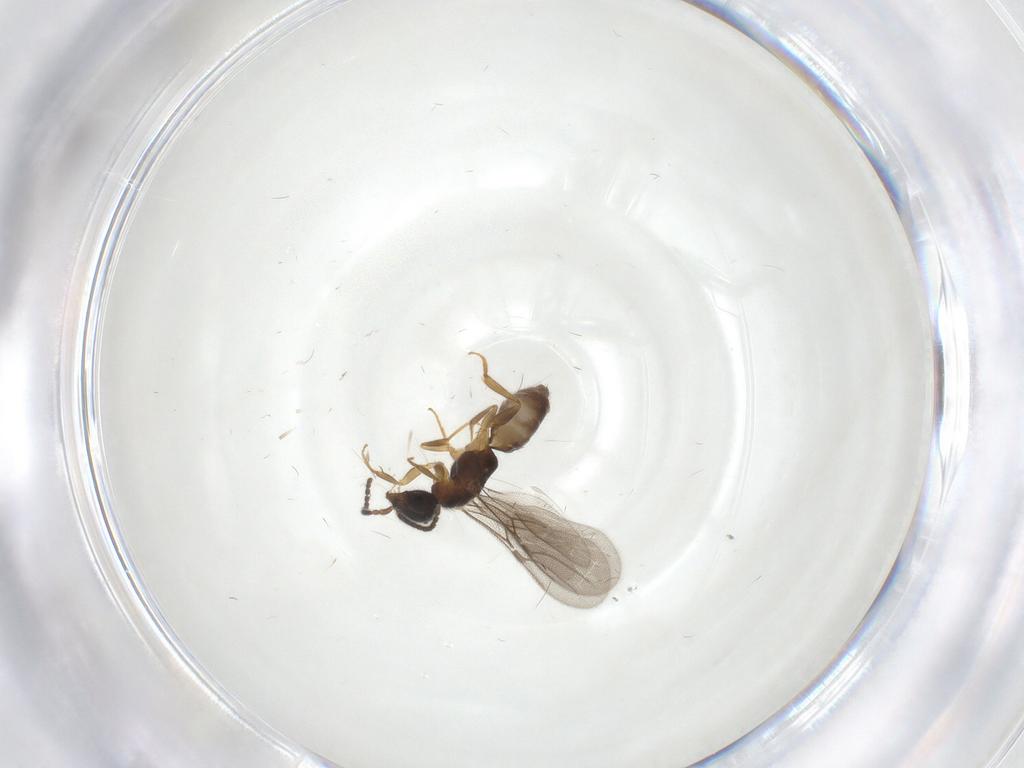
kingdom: Animalia
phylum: Arthropoda
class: Insecta
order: Hymenoptera
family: Bethylidae
